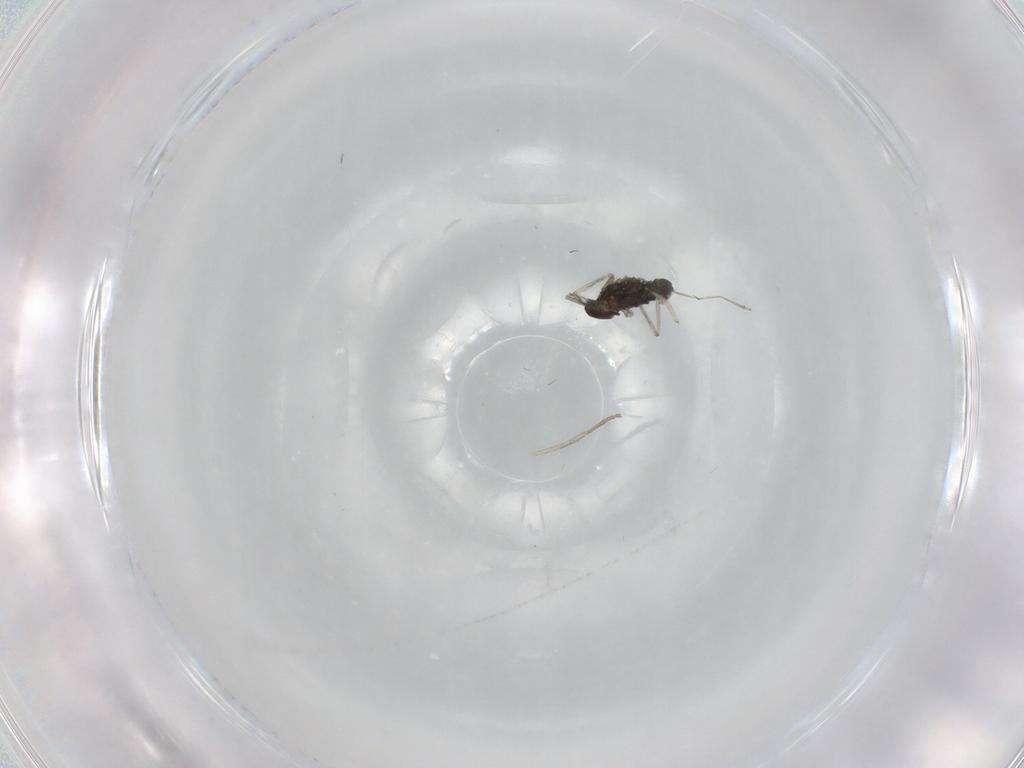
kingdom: Animalia
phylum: Arthropoda
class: Insecta
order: Diptera
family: Cecidomyiidae
